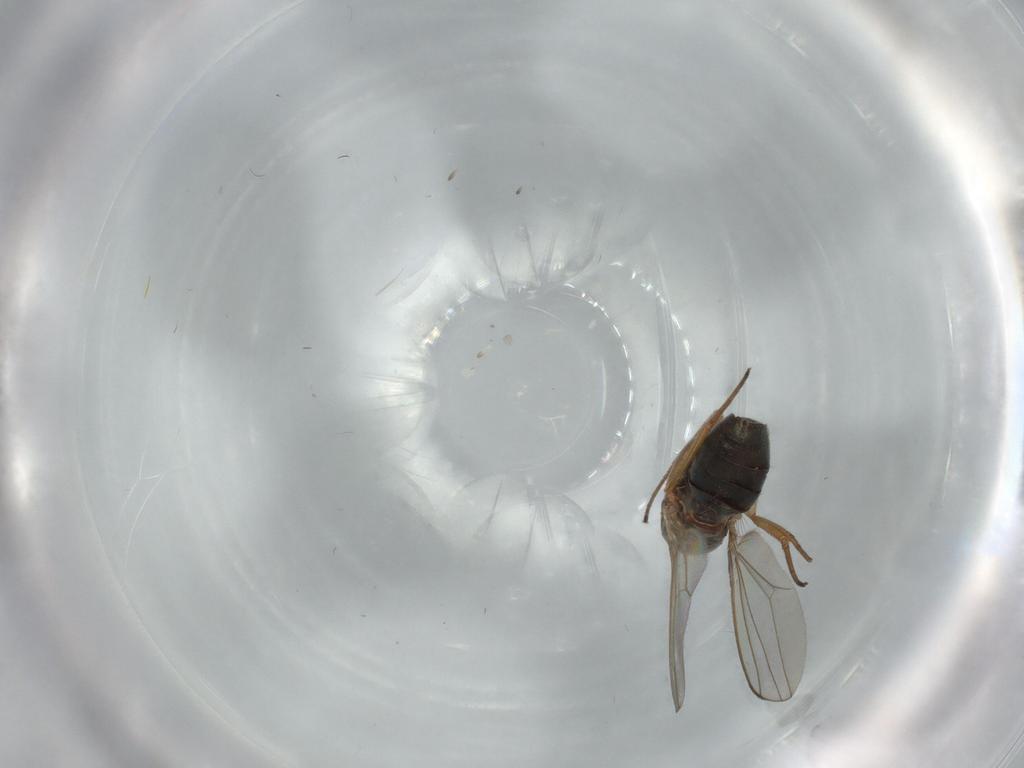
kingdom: Animalia
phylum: Arthropoda
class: Insecta
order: Diptera
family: Chloropidae
